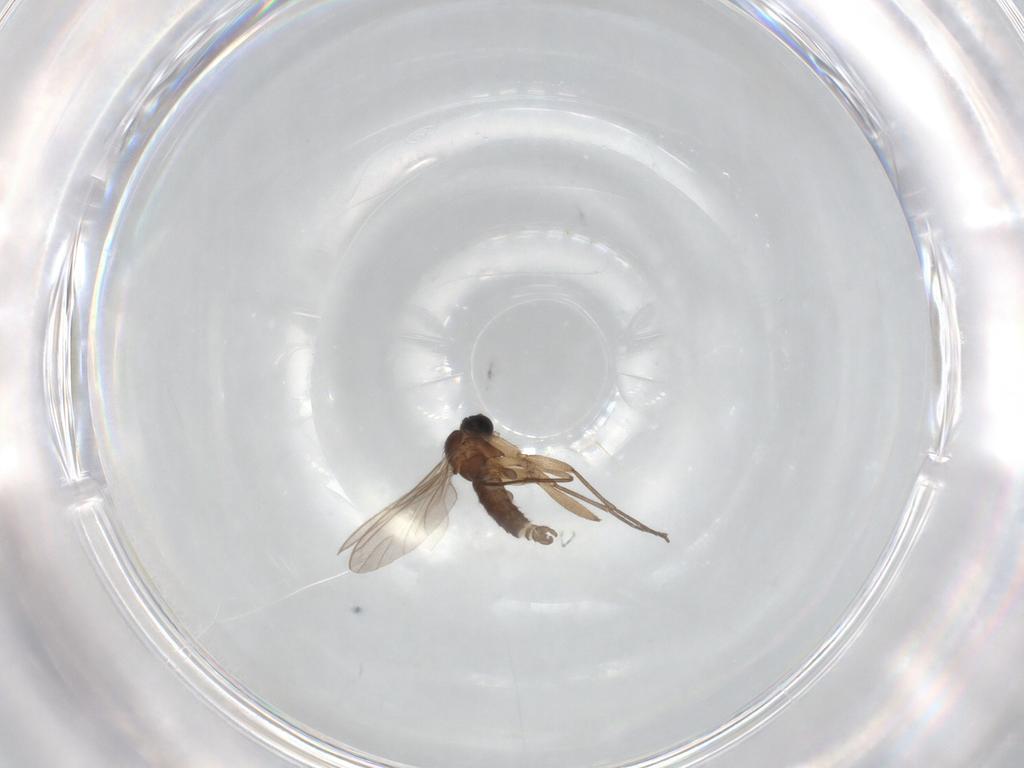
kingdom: Animalia
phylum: Arthropoda
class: Insecta
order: Diptera
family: Sciaridae
